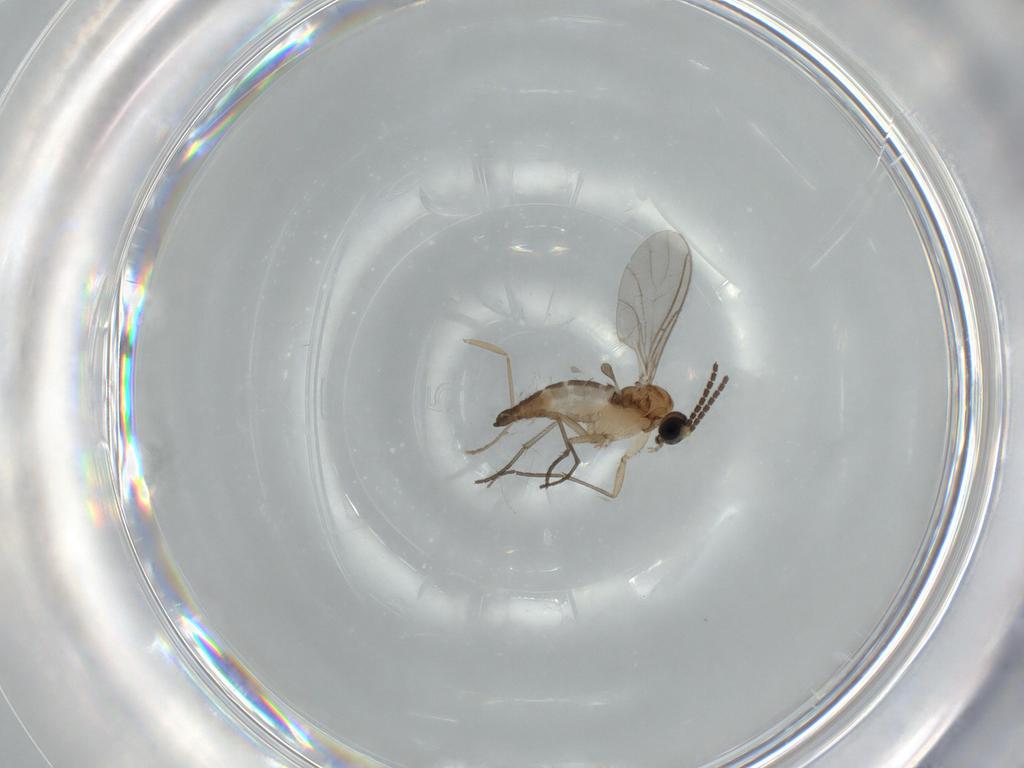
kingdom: Animalia
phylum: Arthropoda
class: Insecta
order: Diptera
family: Sciaridae
